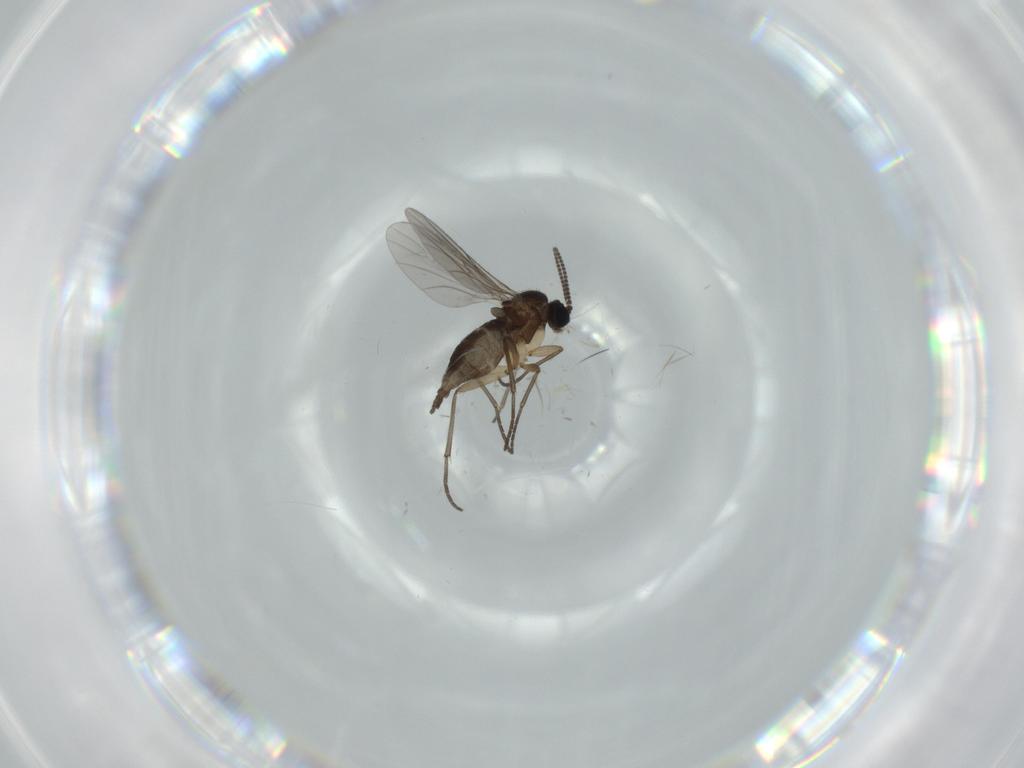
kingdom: Animalia
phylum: Arthropoda
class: Insecta
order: Diptera
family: Sciaridae
